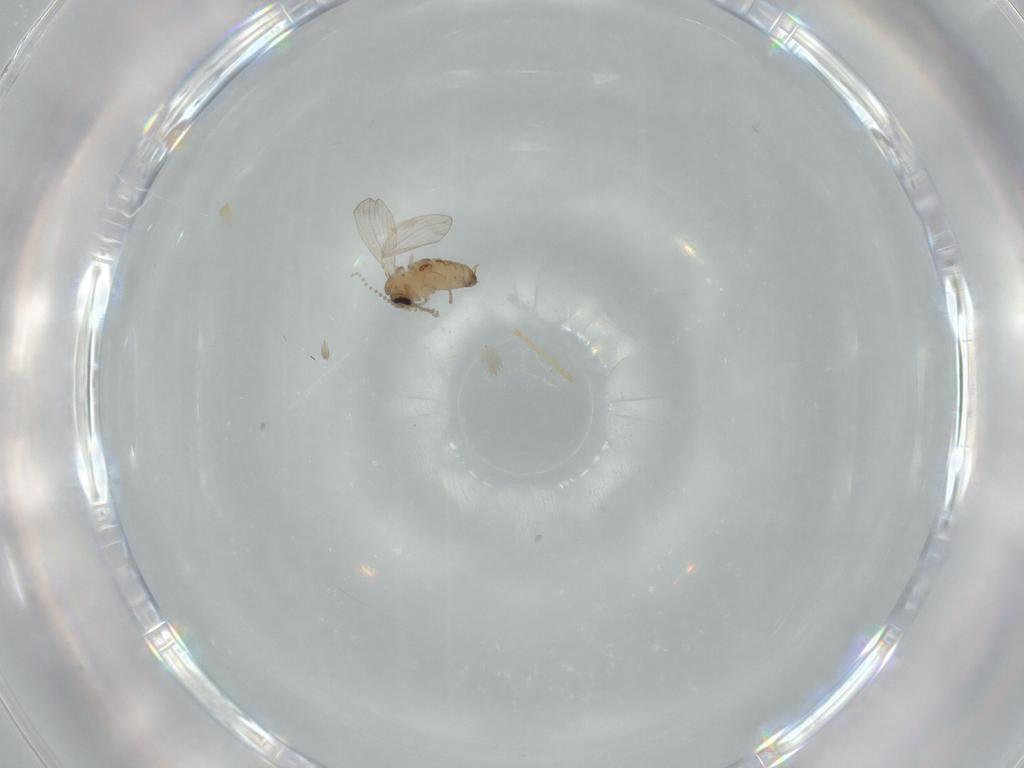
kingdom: Animalia
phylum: Arthropoda
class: Insecta
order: Diptera
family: Psychodidae
